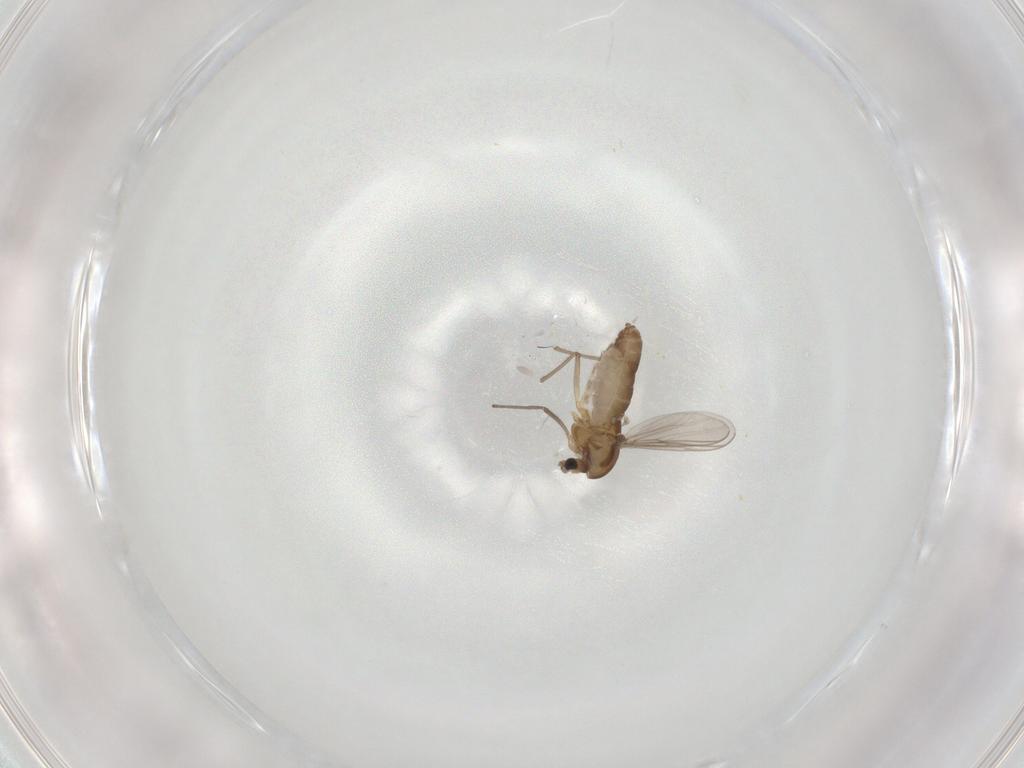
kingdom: Animalia
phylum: Arthropoda
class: Insecta
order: Diptera
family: Chironomidae
